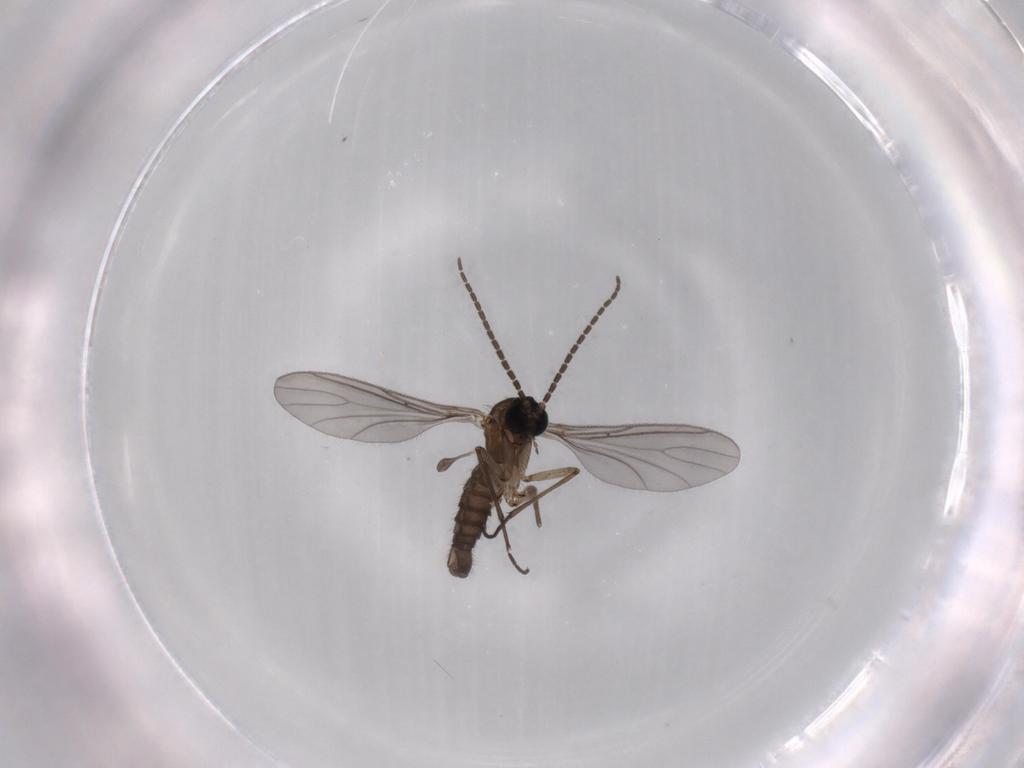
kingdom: Animalia
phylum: Arthropoda
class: Insecta
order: Diptera
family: Sciaridae
